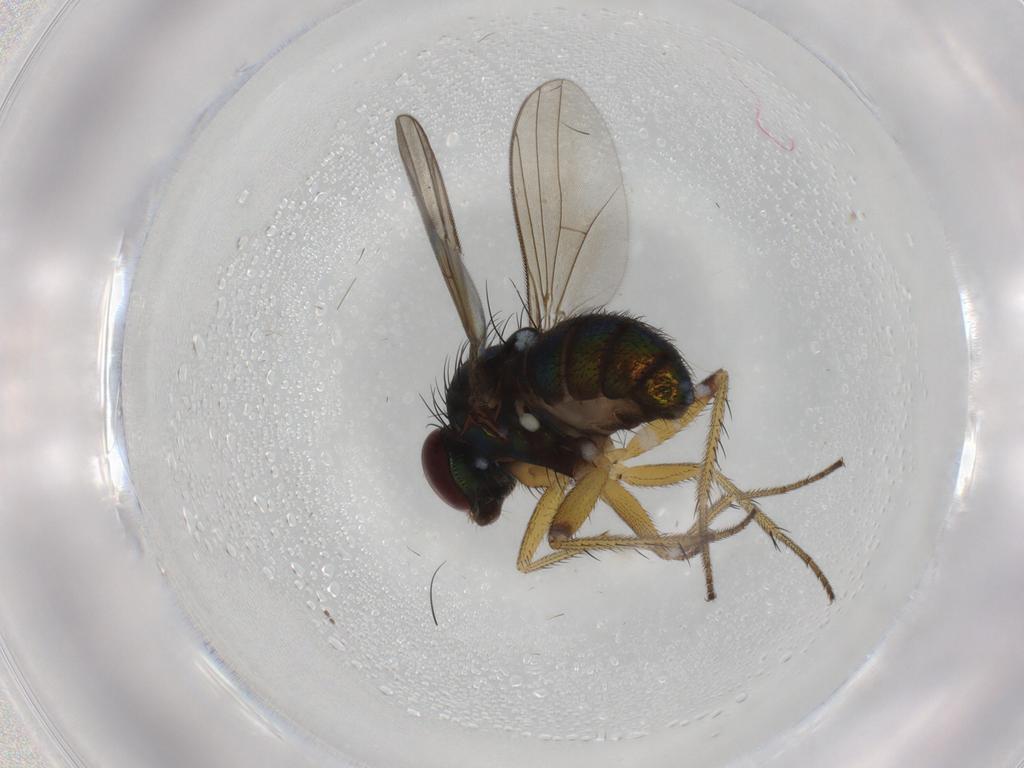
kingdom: Animalia
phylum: Arthropoda
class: Insecta
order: Diptera
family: Dolichopodidae
